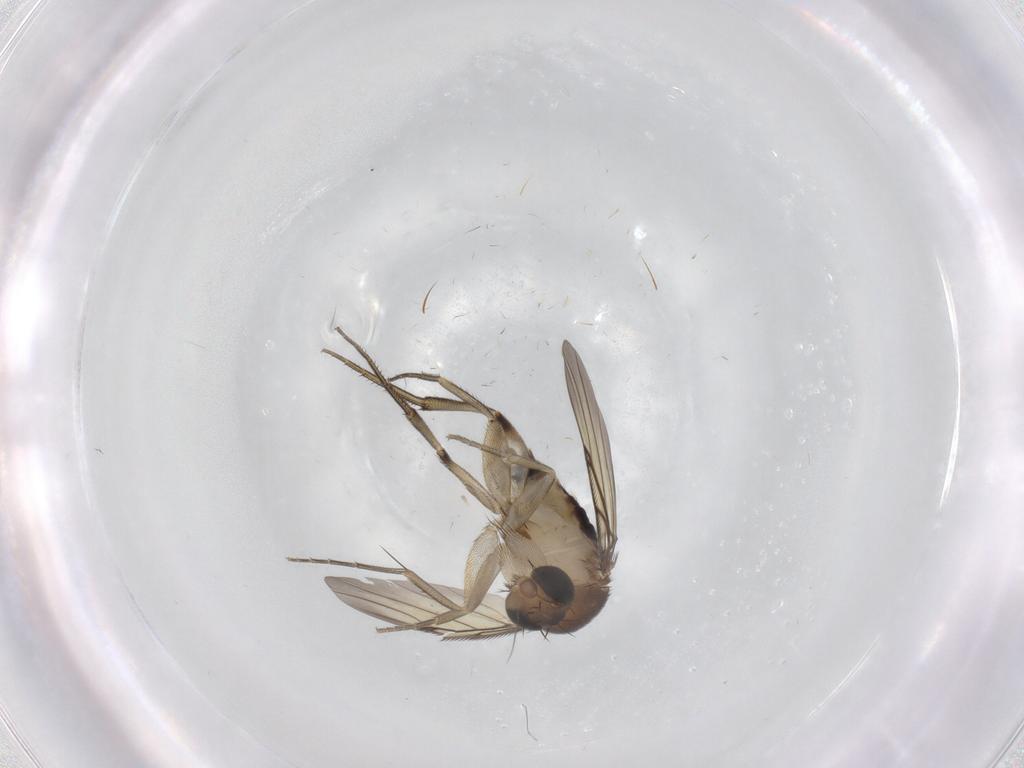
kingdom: Animalia
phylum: Arthropoda
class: Insecta
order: Diptera
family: Phoridae
